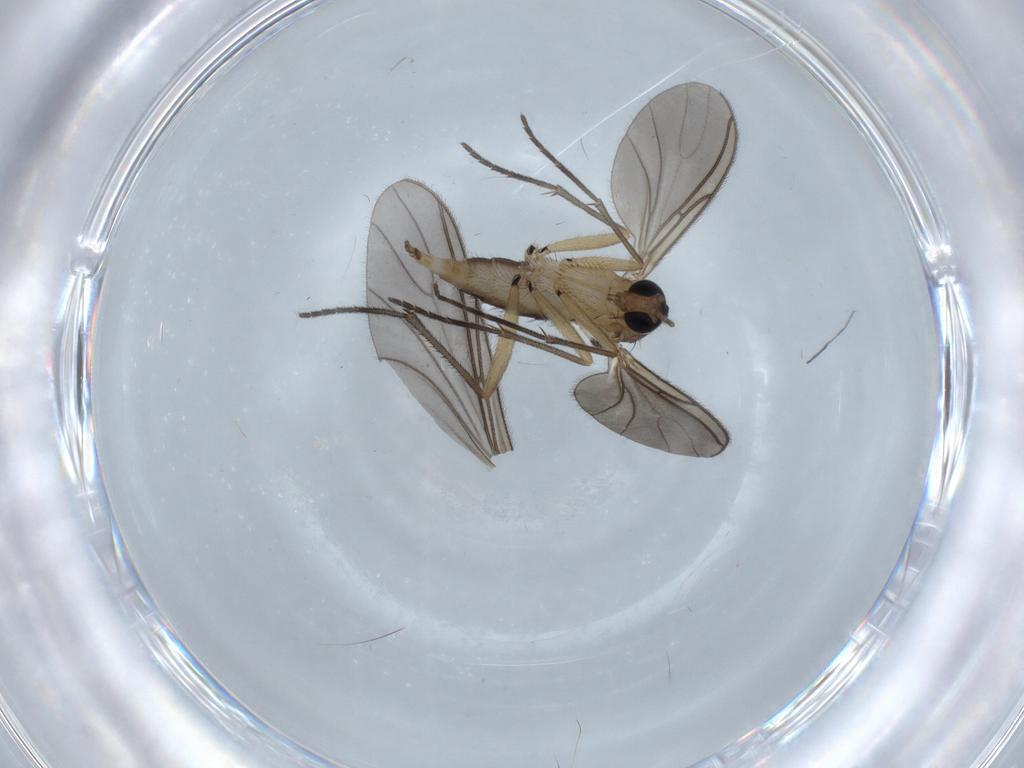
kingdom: Animalia
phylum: Arthropoda
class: Insecta
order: Diptera
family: Sciaridae
